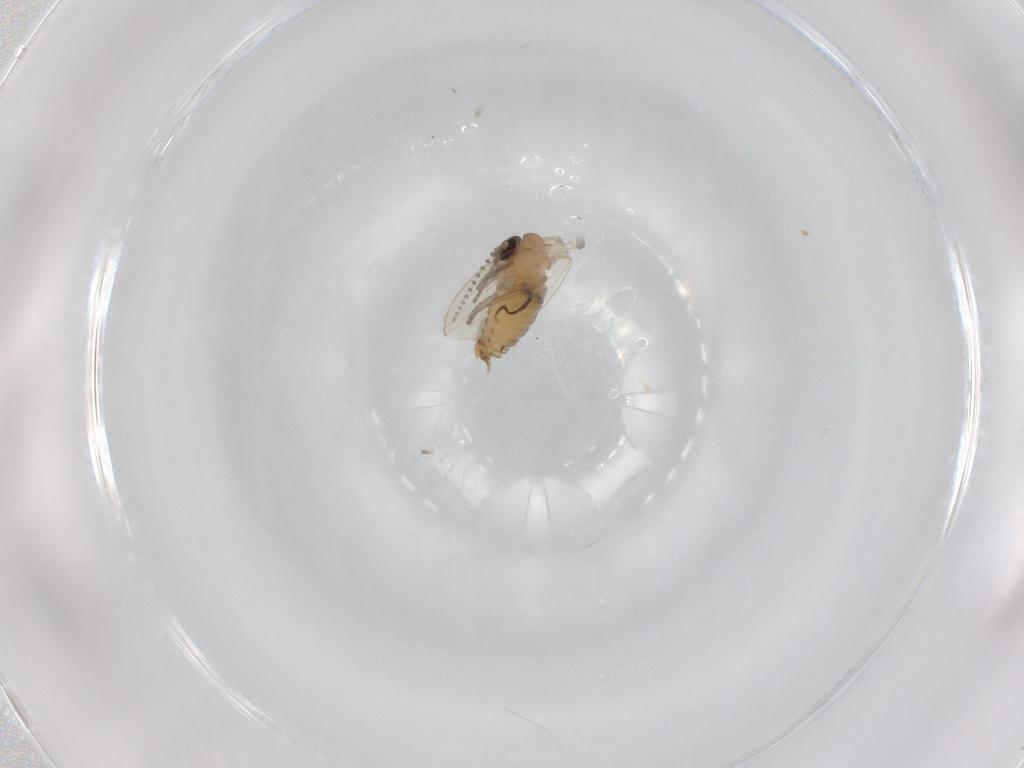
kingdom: Animalia
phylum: Arthropoda
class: Insecta
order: Diptera
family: Psychodidae
